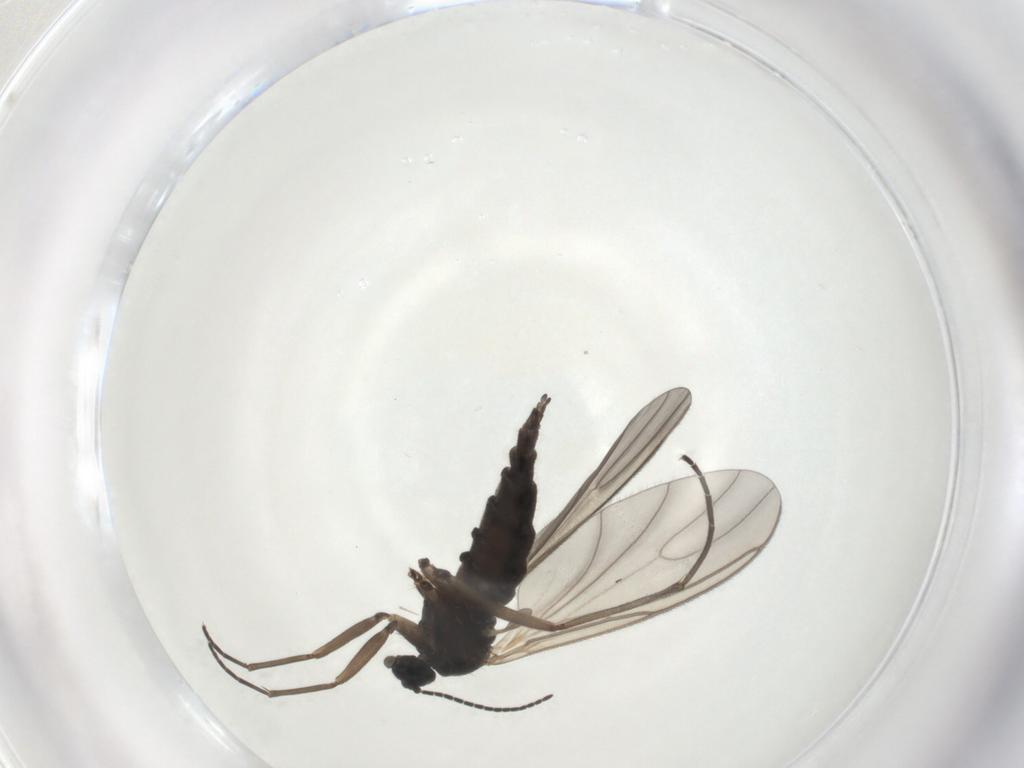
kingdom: Animalia
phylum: Arthropoda
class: Insecta
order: Diptera
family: Sciaridae
